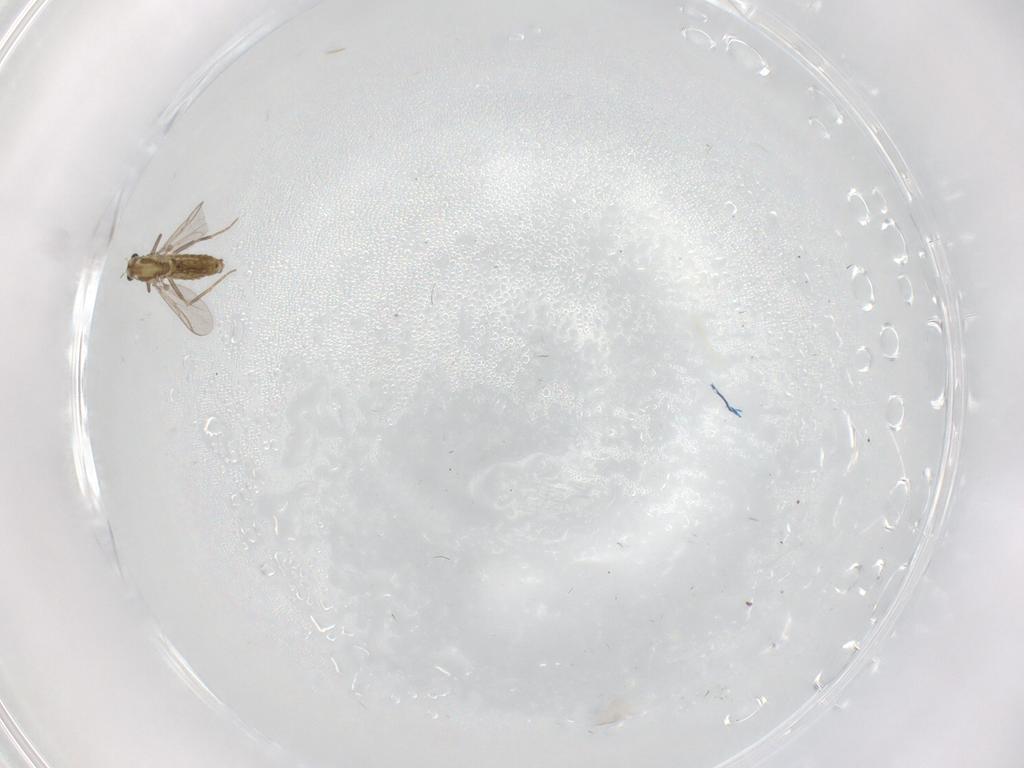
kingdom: Animalia
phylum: Arthropoda
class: Insecta
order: Diptera
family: Chironomidae
